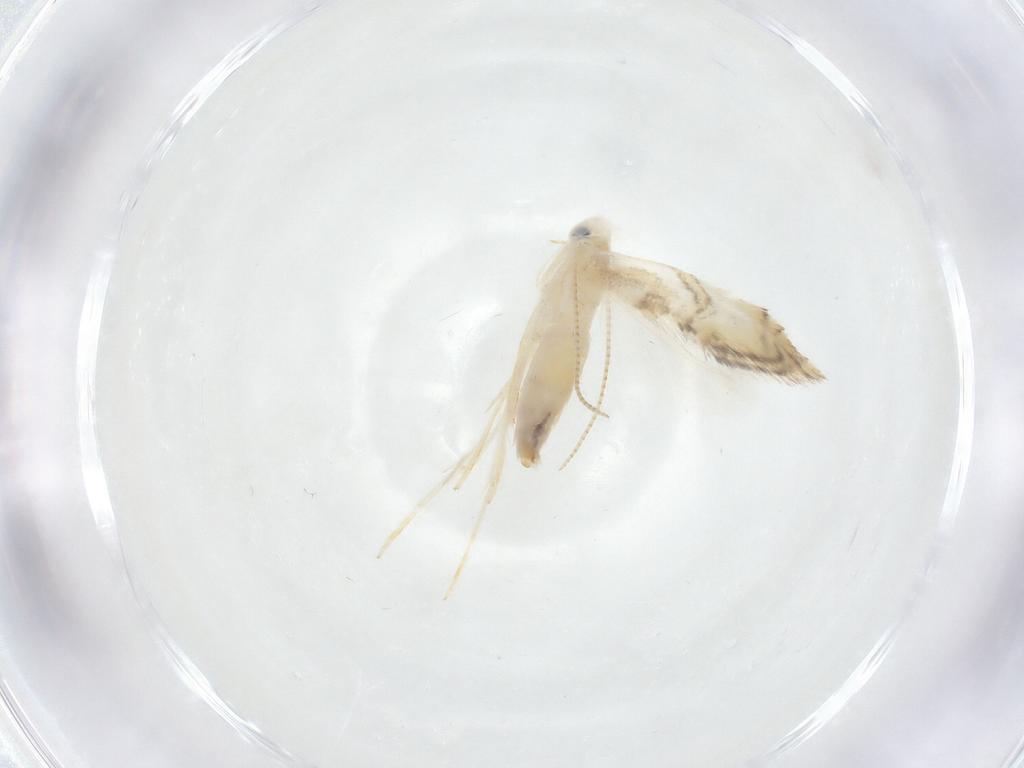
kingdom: Animalia
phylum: Arthropoda
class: Insecta
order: Lepidoptera
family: Gracillariidae
